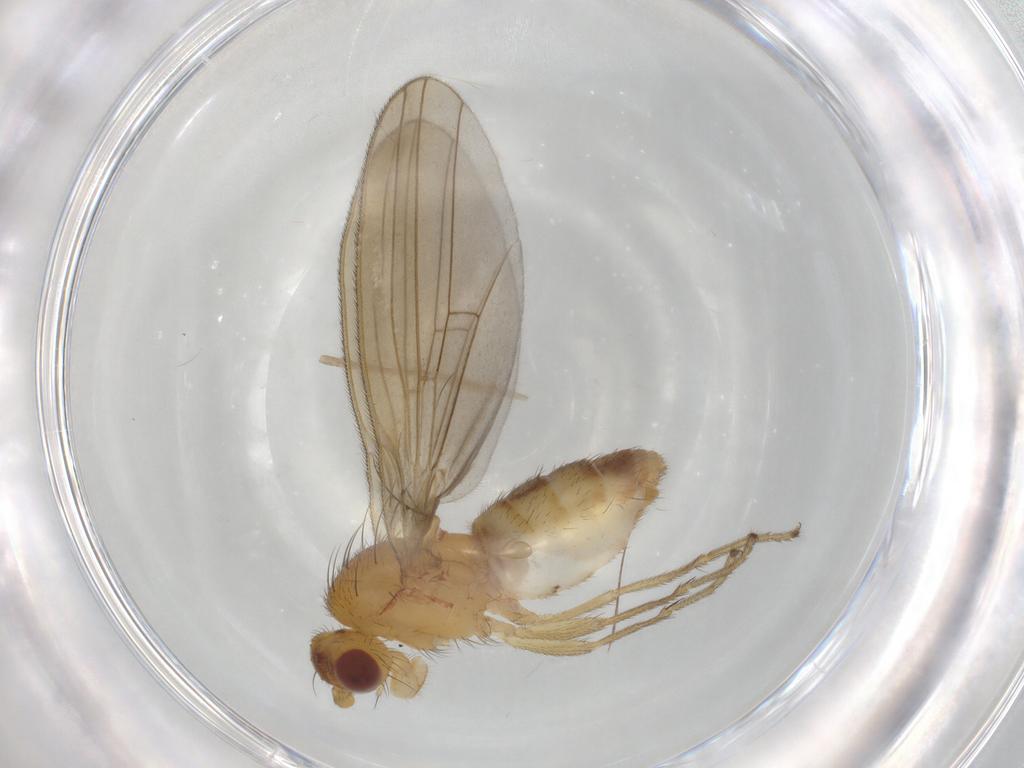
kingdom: Animalia
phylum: Arthropoda
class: Insecta
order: Diptera
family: Natalimyzidae
